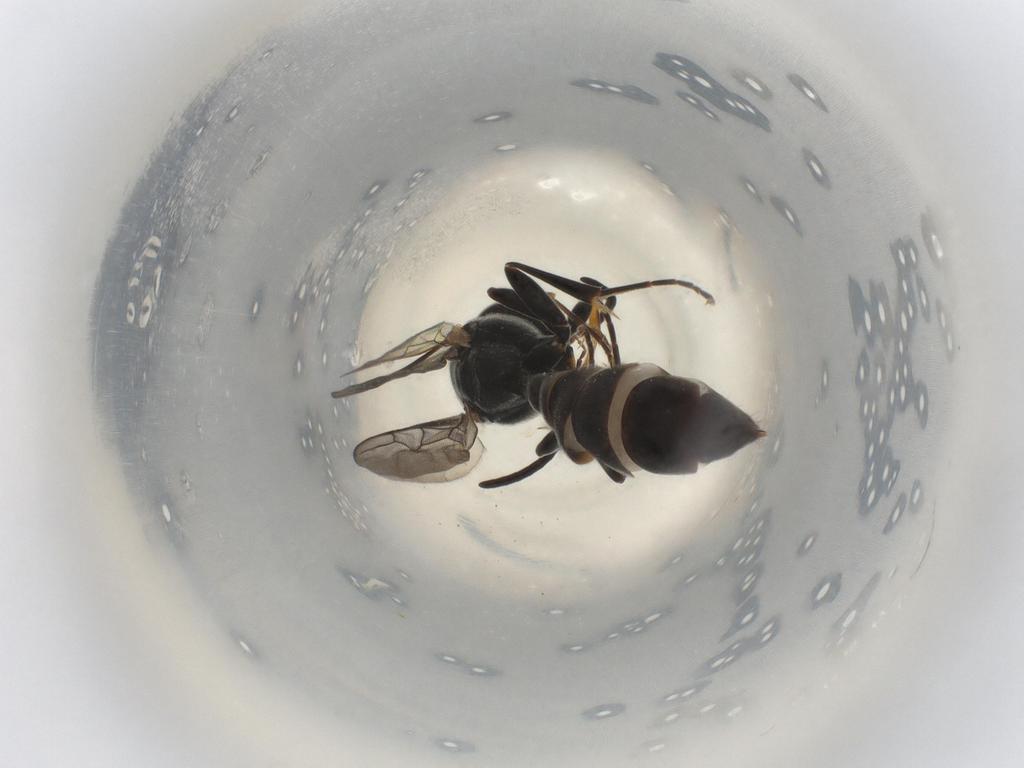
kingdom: Animalia
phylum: Arthropoda
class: Insecta
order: Hymenoptera
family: Crabronidae
